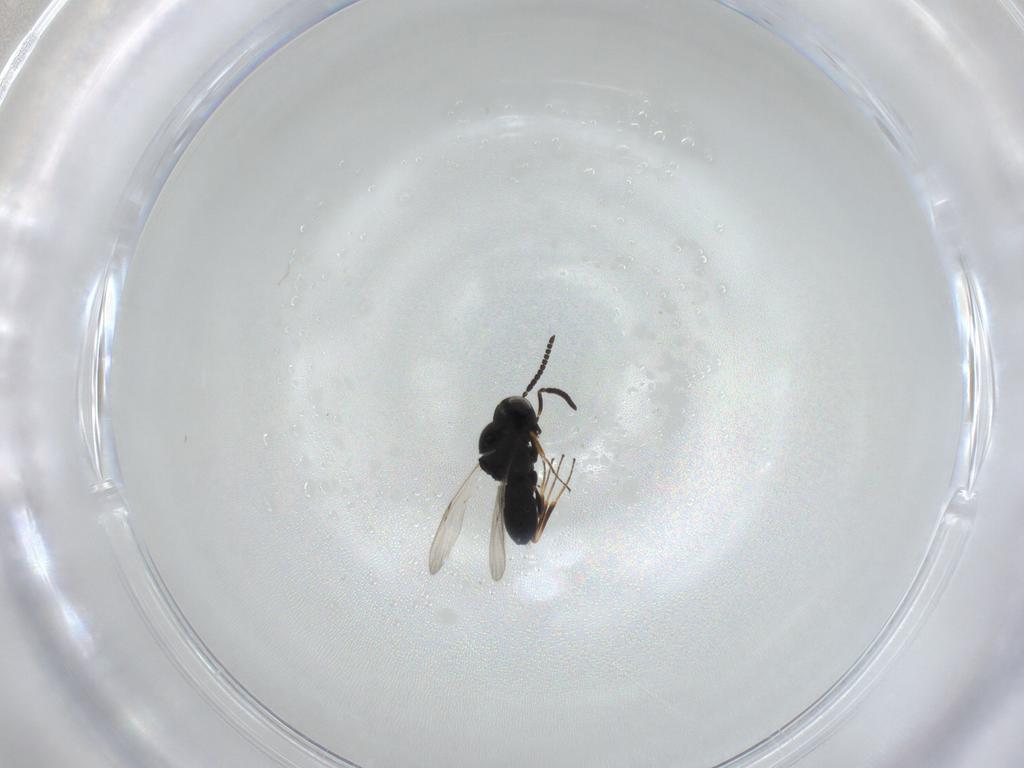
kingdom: Animalia
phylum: Arthropoda
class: Insecta
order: Hymenoptera
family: Scelionidae
